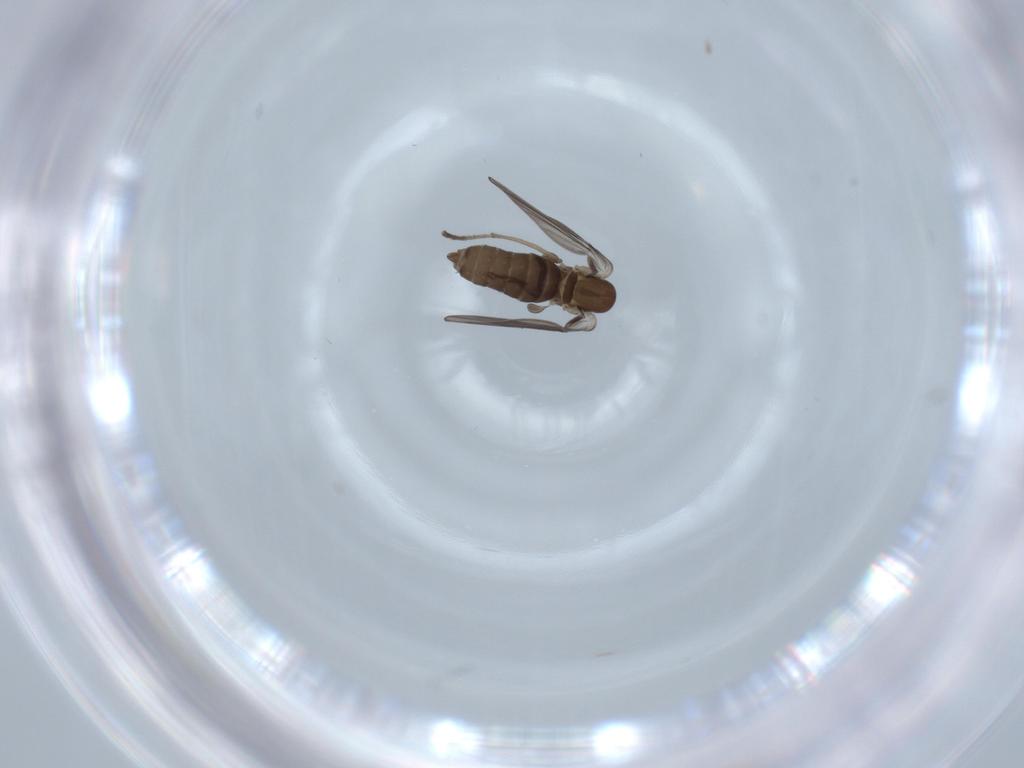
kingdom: Animalia
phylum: Arthropoda
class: Insecta
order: Diptera
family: Psychodidae
